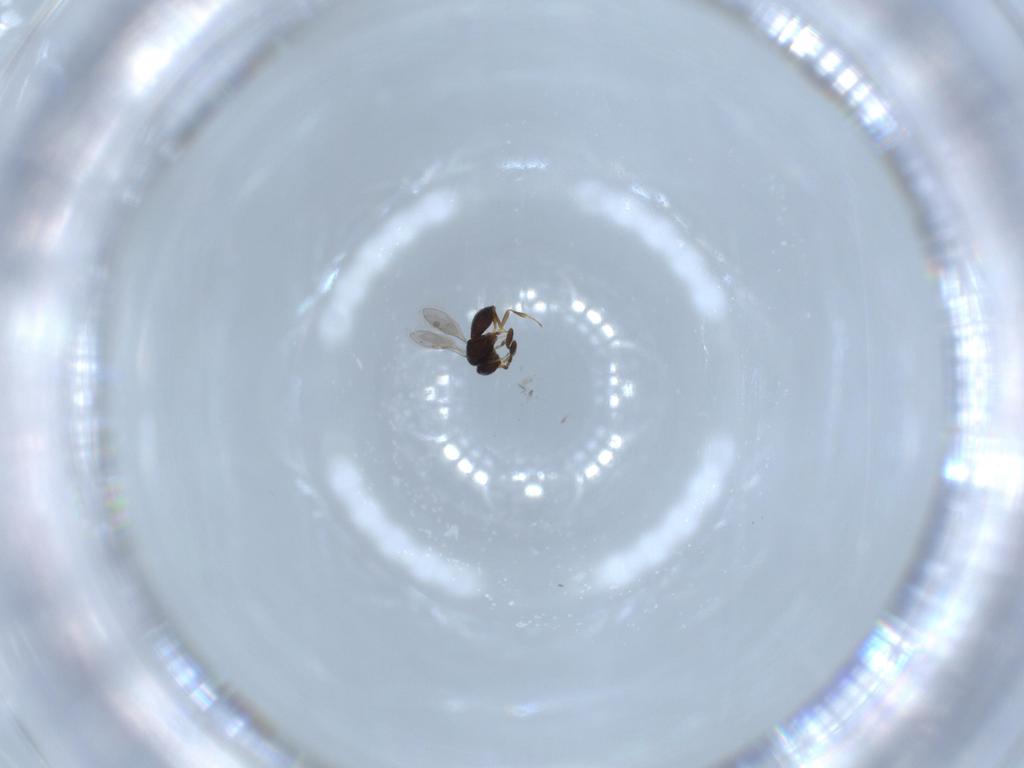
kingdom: Animalia
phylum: Arthropoda
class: Insecta
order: Hymenoptera
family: Scelionidae
